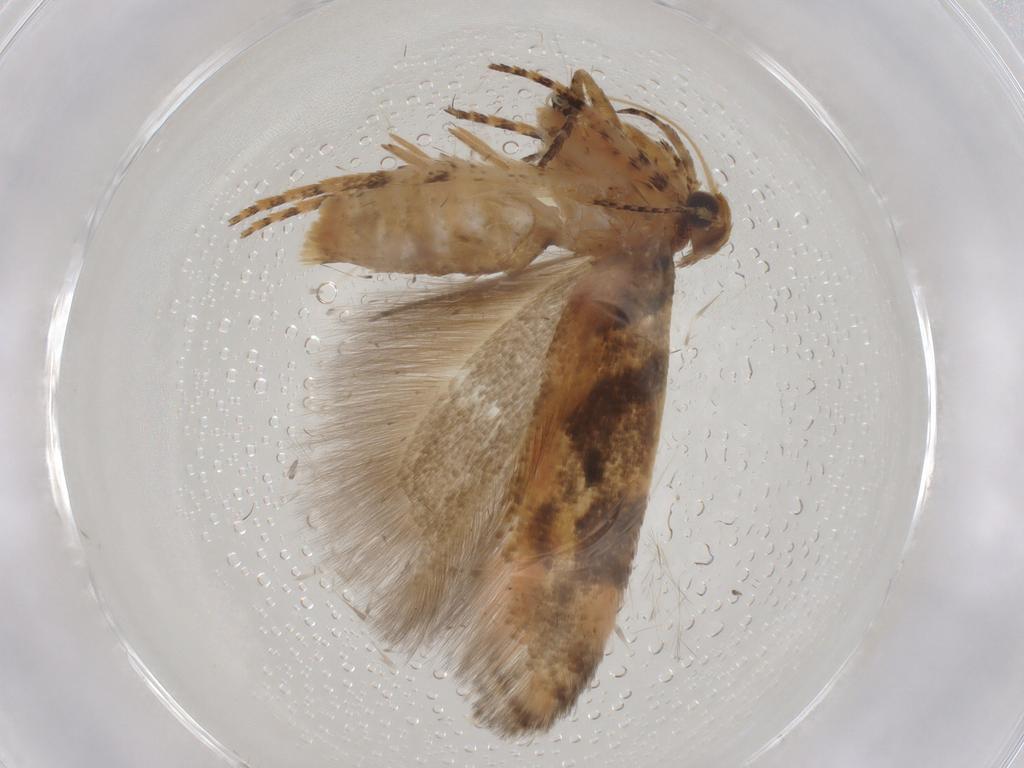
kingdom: Animalia
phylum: Arthropoda
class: Insecta
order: Lepidoptera
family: Gelechiidae
